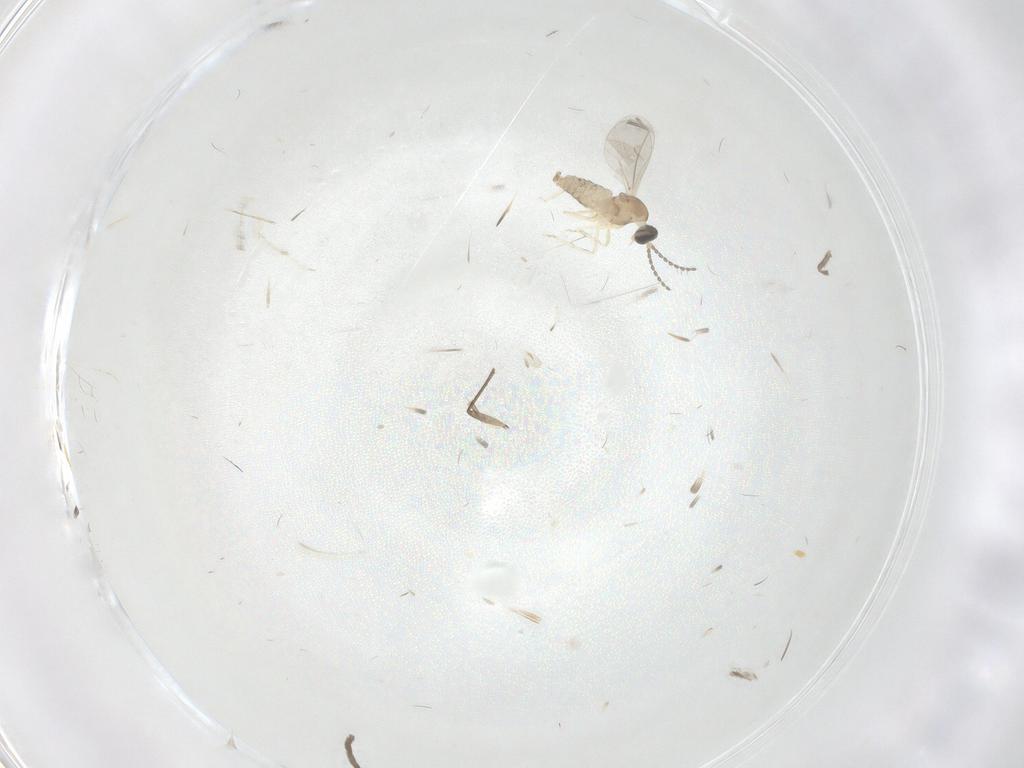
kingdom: Animalia
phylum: Arthropoda
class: Insecta
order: Diptera
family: Cecidomyiidae
